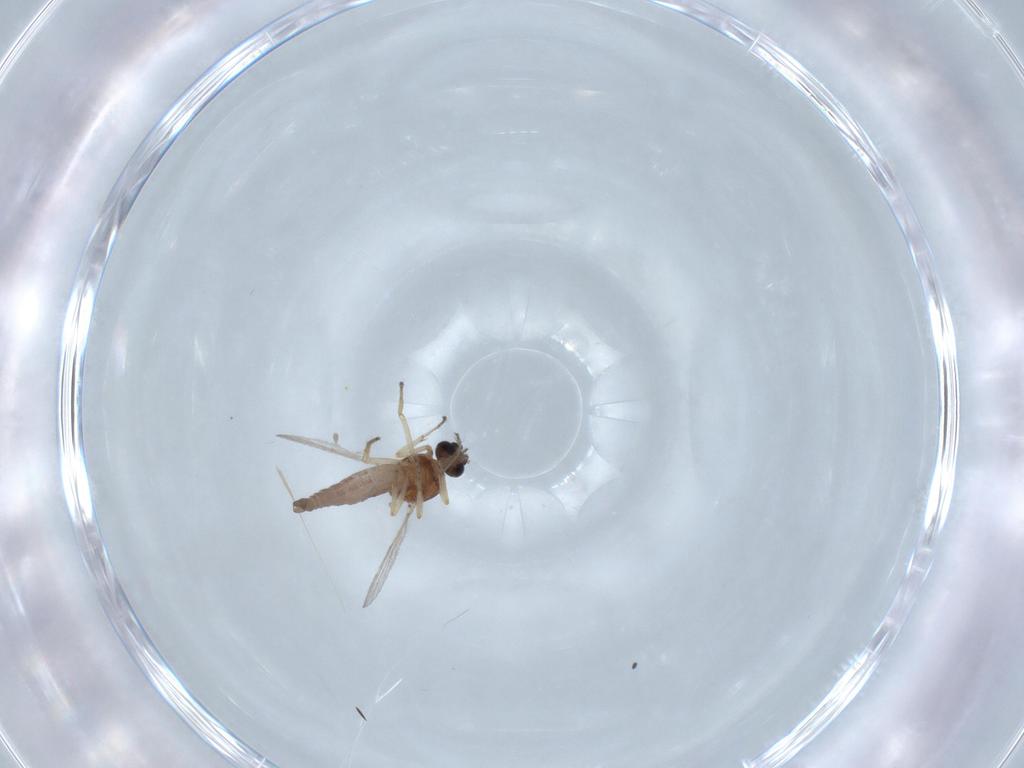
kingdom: Animalia
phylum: Arthropoda
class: Insecta
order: Diptera
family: Ceratopogonidae
